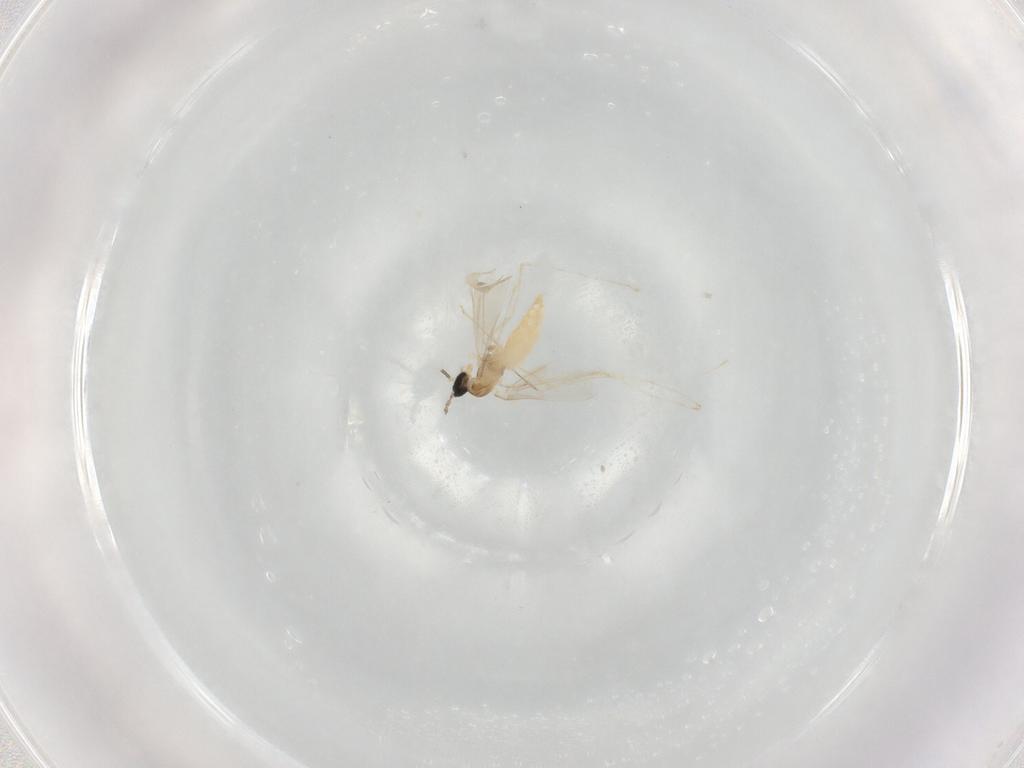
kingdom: Animalia
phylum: Arthropoda
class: Insecta
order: Diptera
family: Cecidomyiidae
